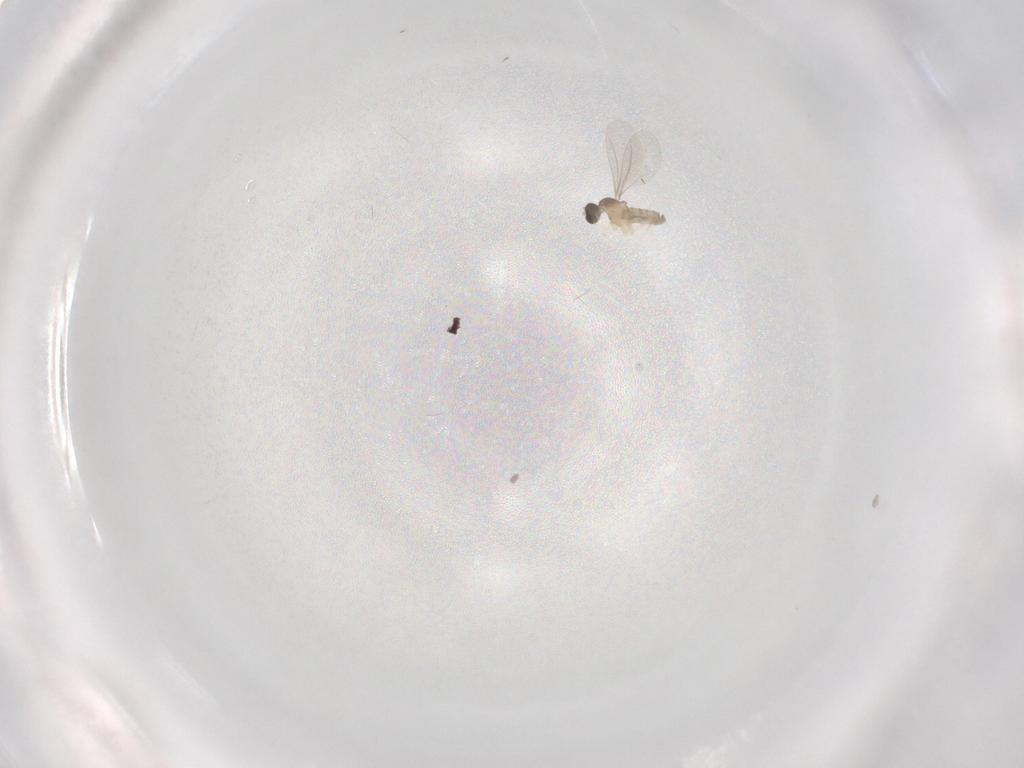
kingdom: Animalia
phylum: Arthropoda
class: Insecta
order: Diptera
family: Cecidomyiidae
